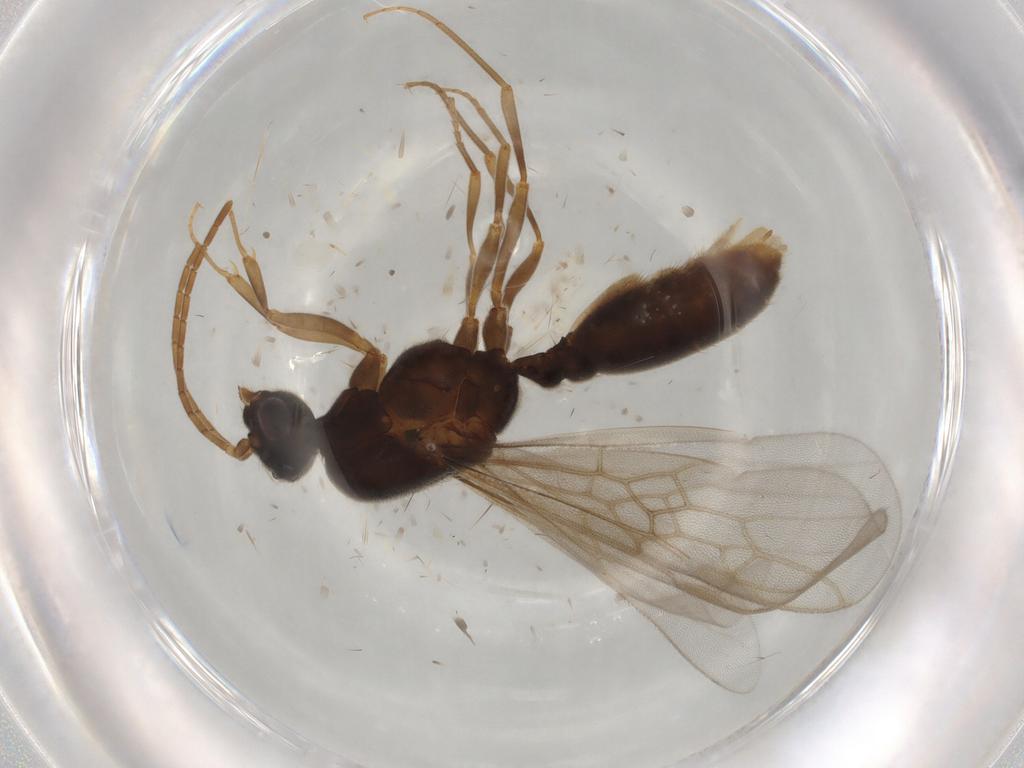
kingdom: Animalia
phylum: Arthropoda
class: Insecta
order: Hymenoptera
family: Formicidae
